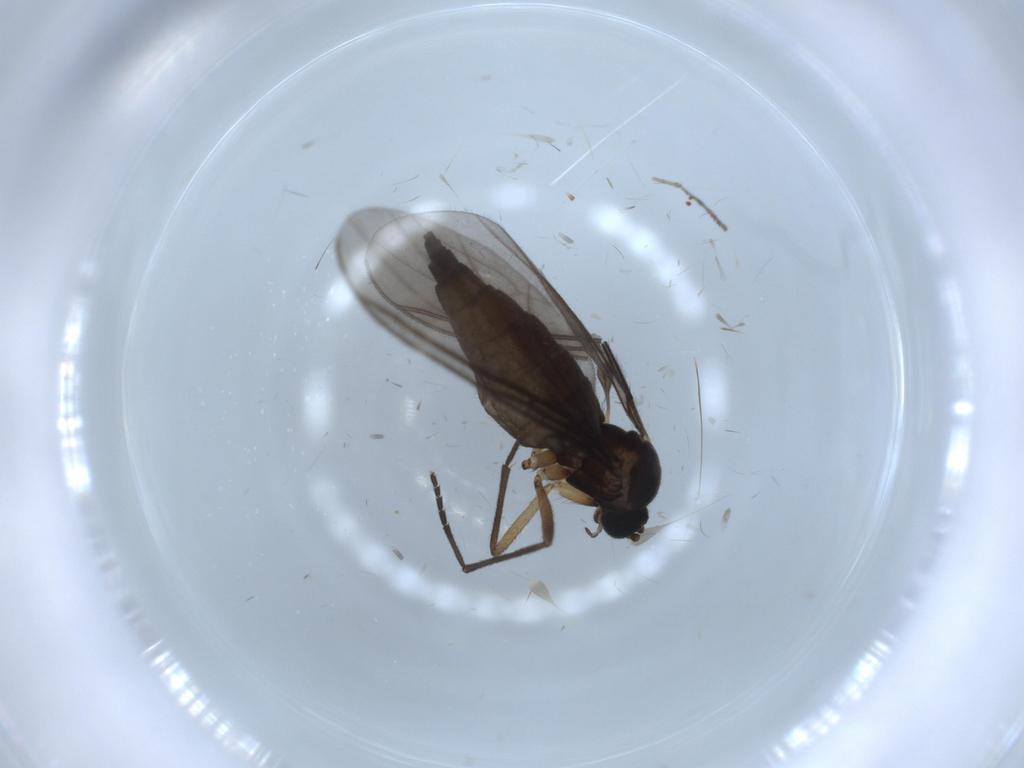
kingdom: Animalia
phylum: Arthropoda
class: Insecta
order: Diptera
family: Sciaridae
